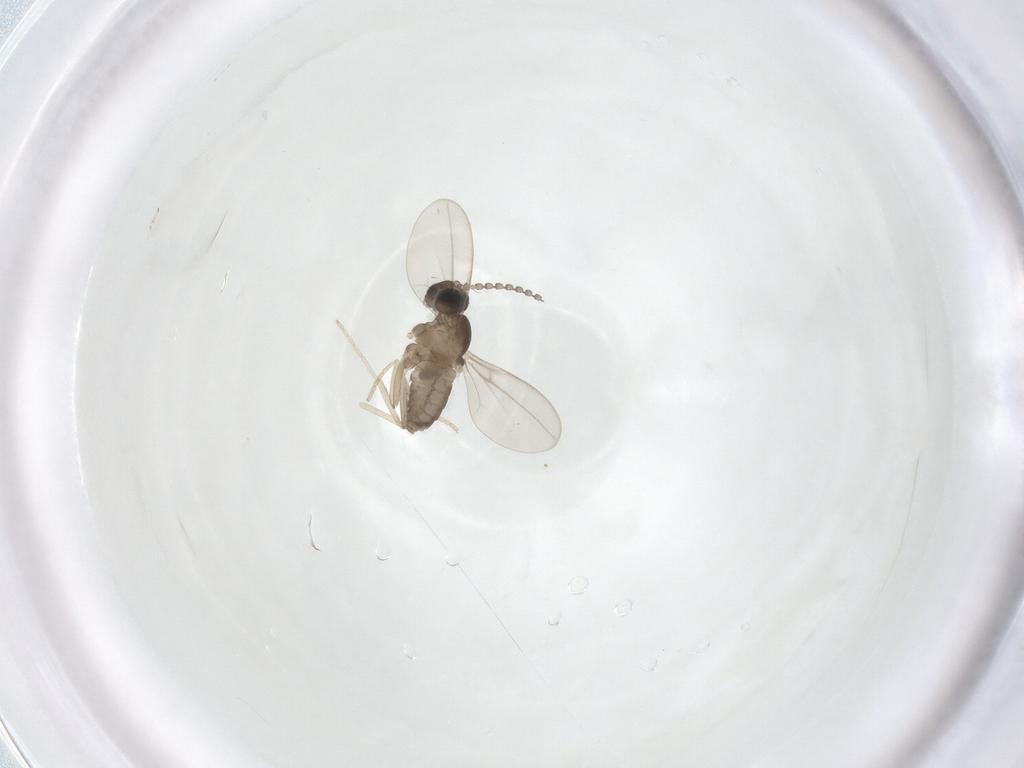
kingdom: Animalia
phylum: Arthropoda
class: Insecta
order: Diptera
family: Cecidomyiidae
